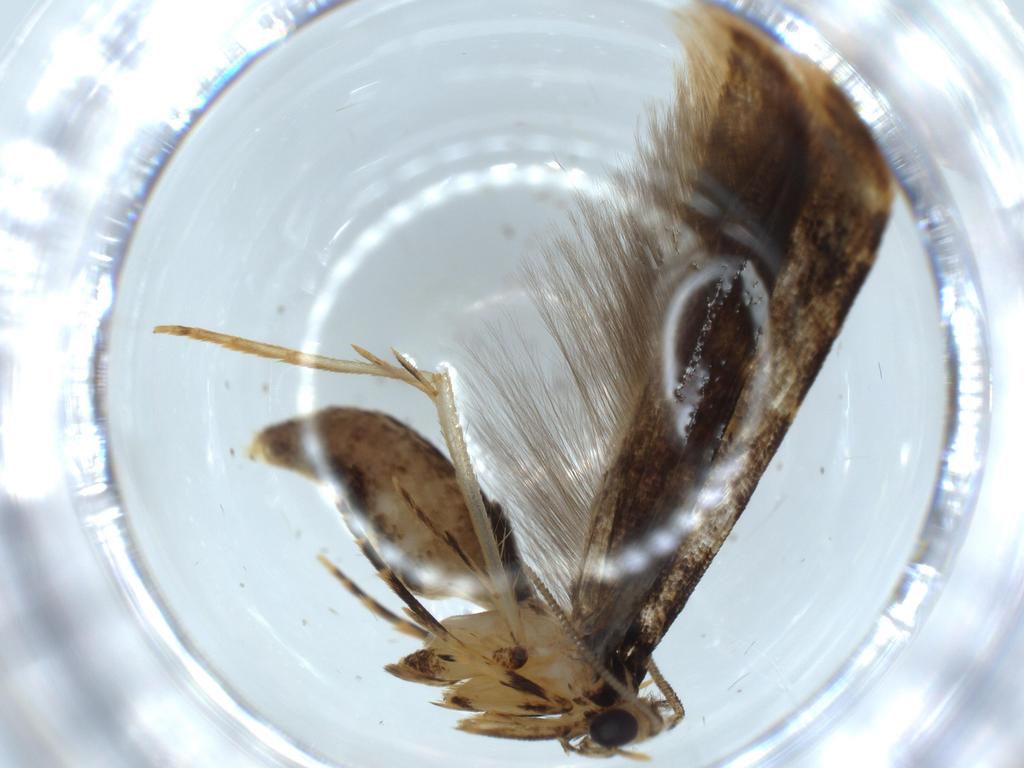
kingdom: Animalia
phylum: Arthropoda
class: Insecta
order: Lepidoptera
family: Tineidae
